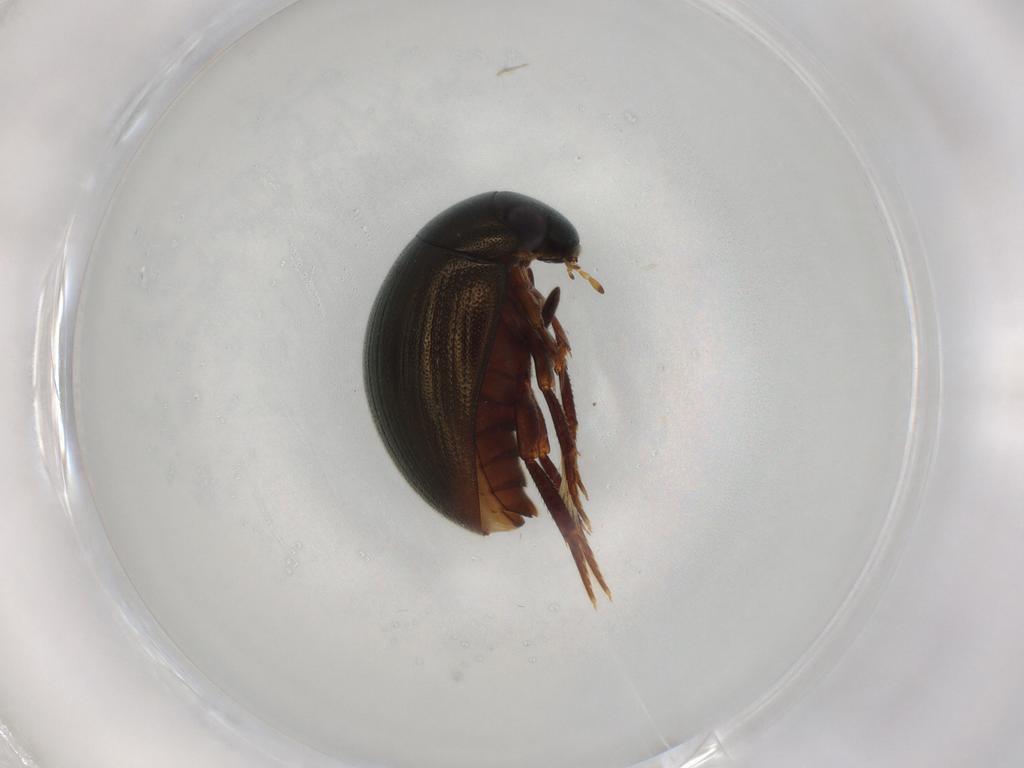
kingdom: Animalia
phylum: Arthropoda
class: Insecta
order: Coleoptera
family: Hydrophilidae
